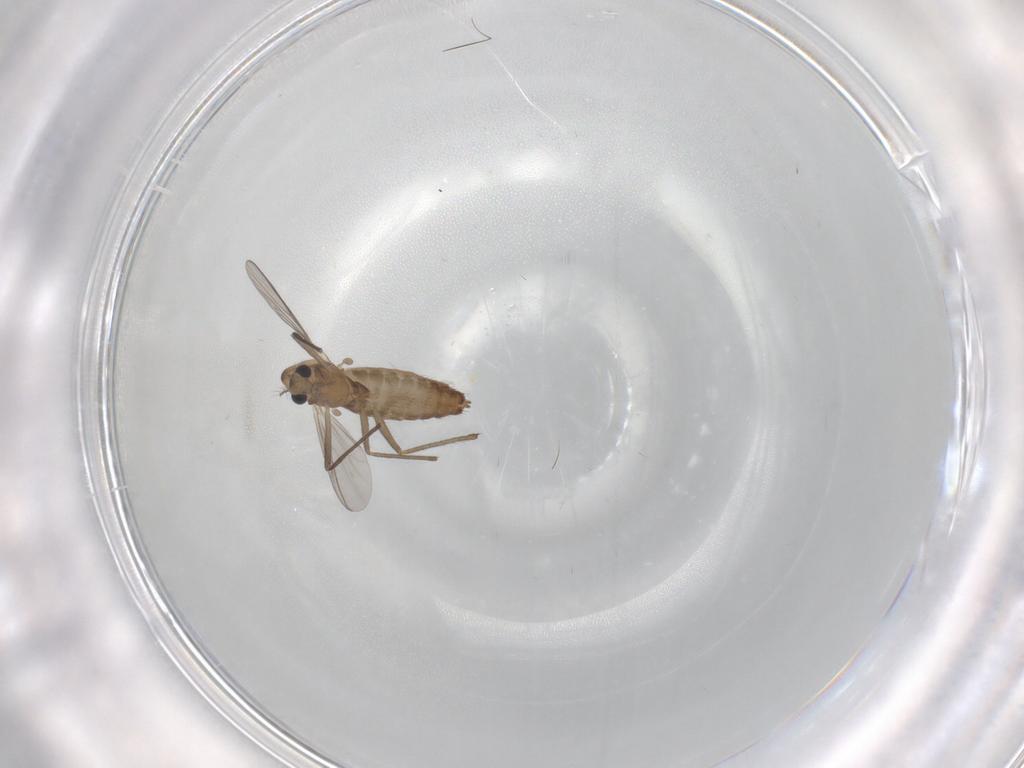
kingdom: Animalia
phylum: Arthropoda
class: Insecta
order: Diptera
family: Chironomidae
